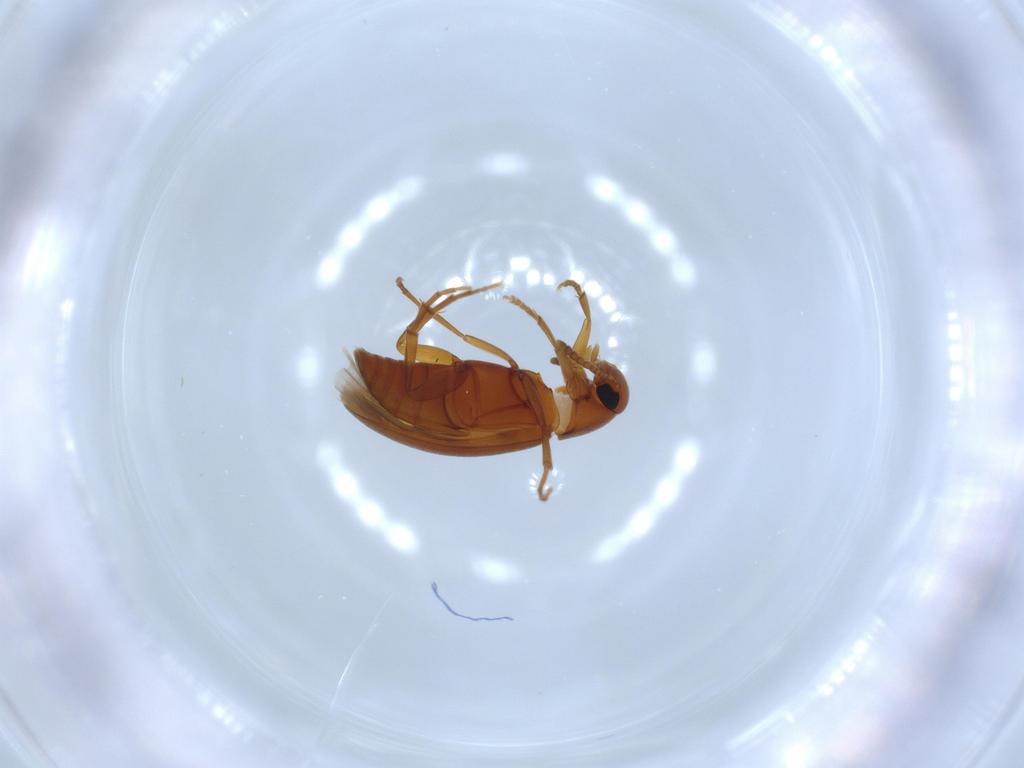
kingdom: Animalia
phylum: Arthropoda
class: Insecta
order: Coleoptera
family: Scraptiidae
